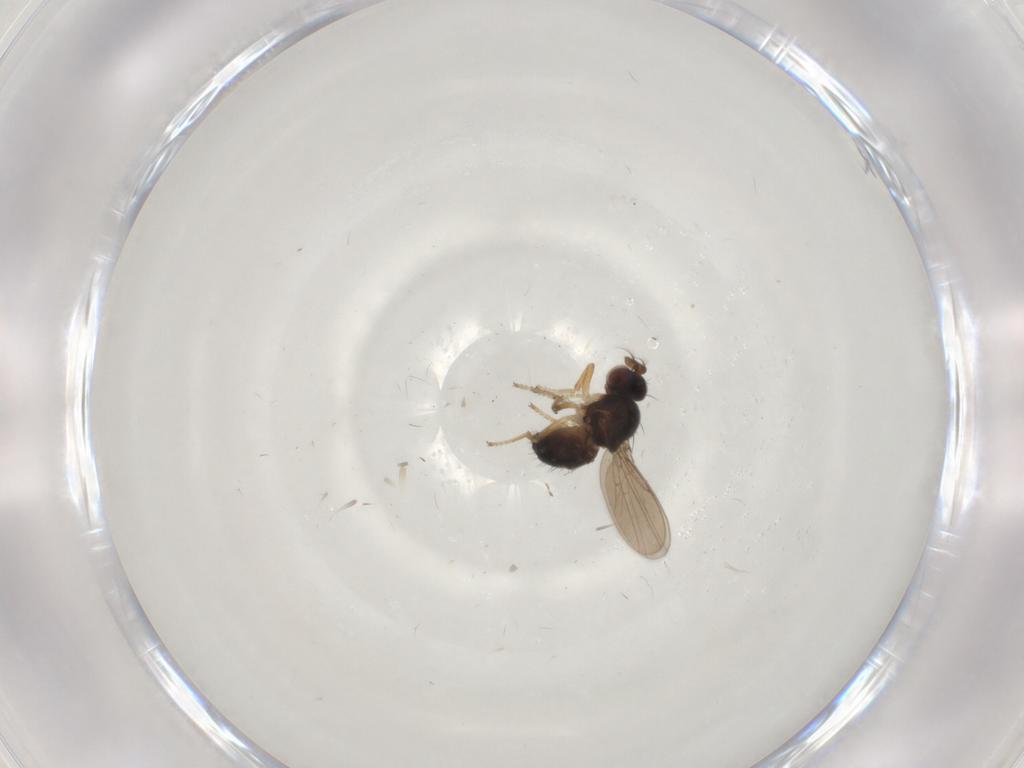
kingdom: Animalia
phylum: Arthropoda
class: Insecta
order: Diptera
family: Ephydridae
